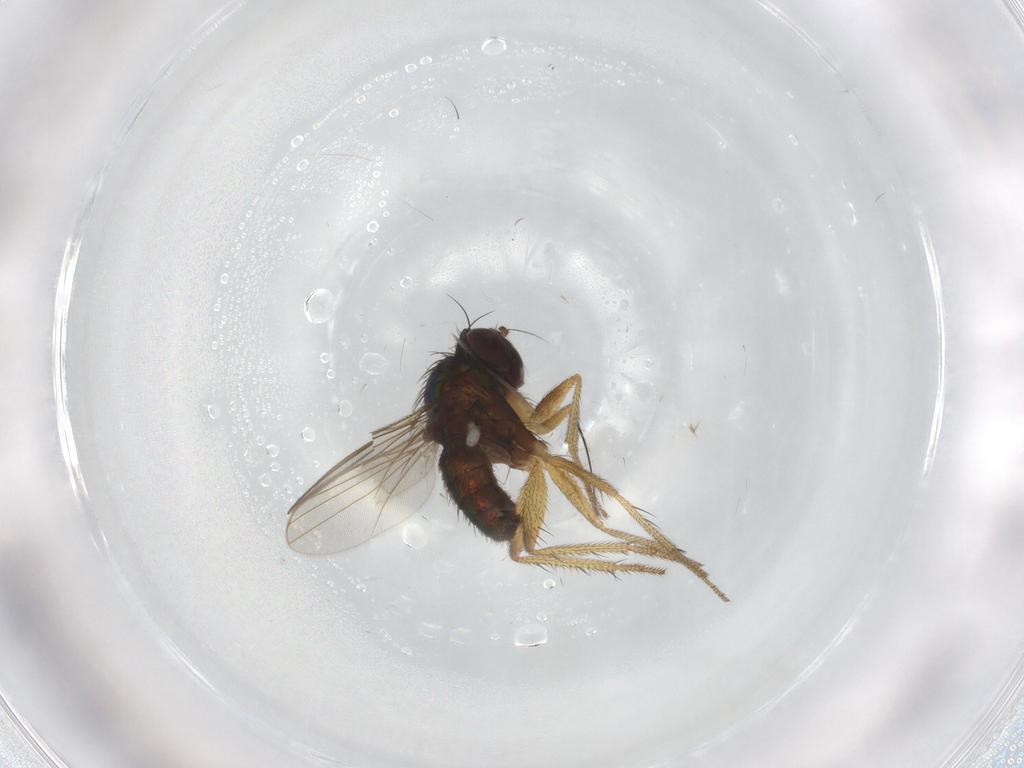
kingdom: Animalia
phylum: Arthropoda
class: Insecta
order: Diptera
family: Dolichopodidae
